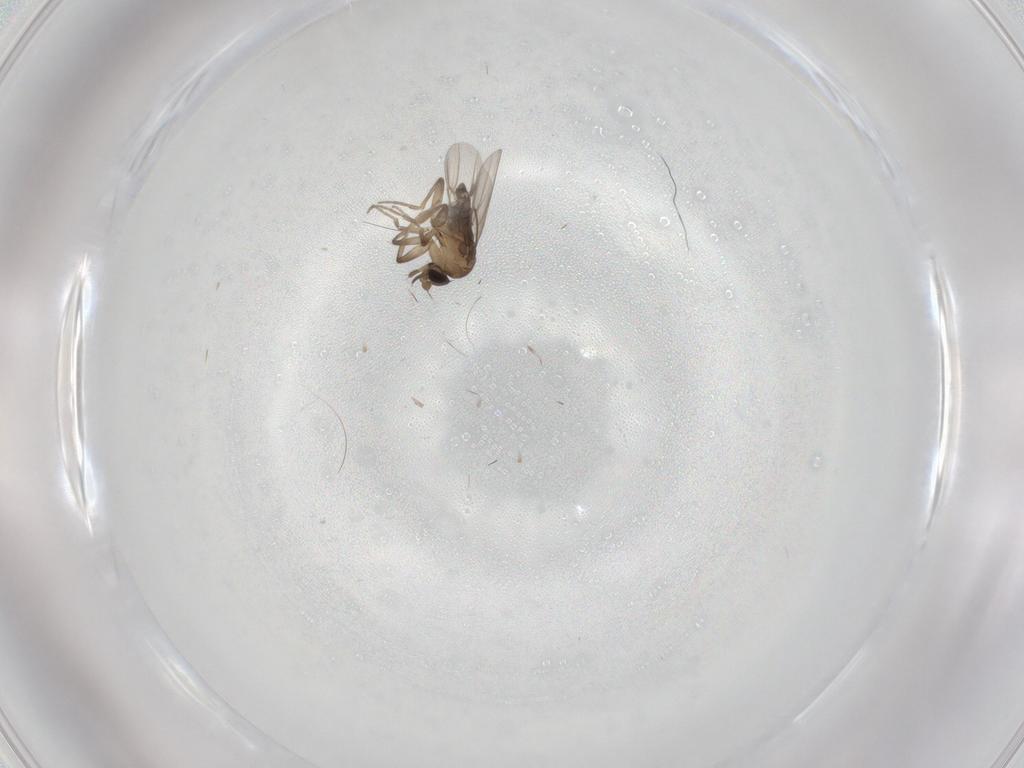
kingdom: Animalia
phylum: Arthropoda
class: Insecta
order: Diptera
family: Phoridae
